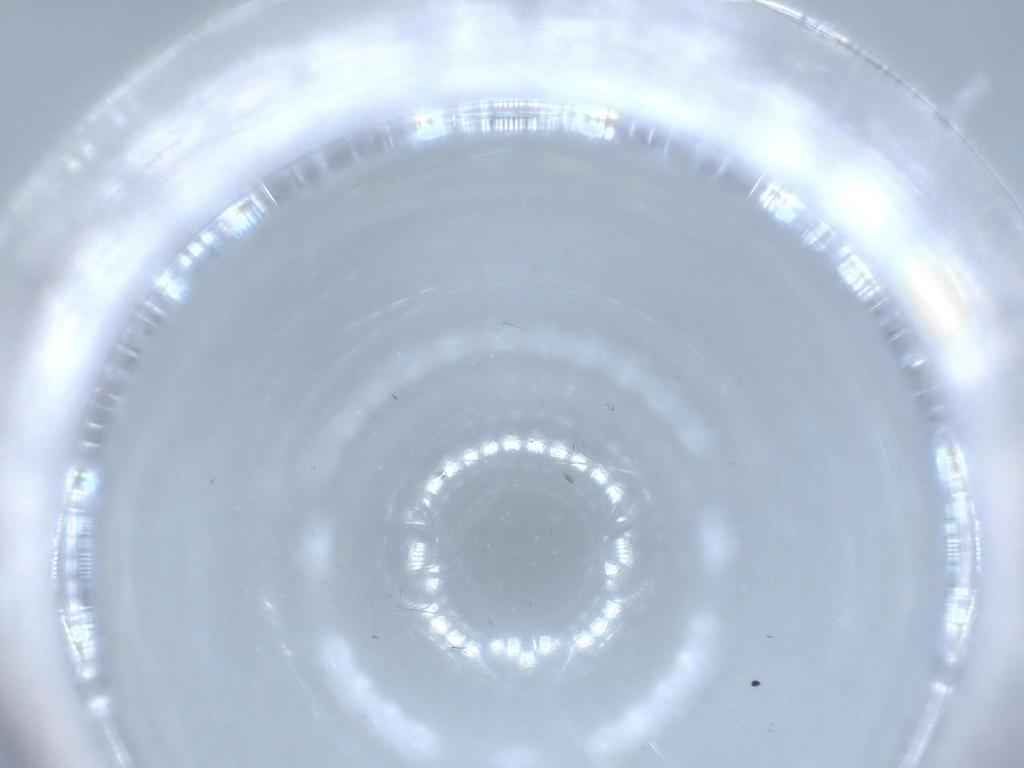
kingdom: Animalia
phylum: Arthropoda
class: Insecta
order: Blattodea
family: Ectobiidae
